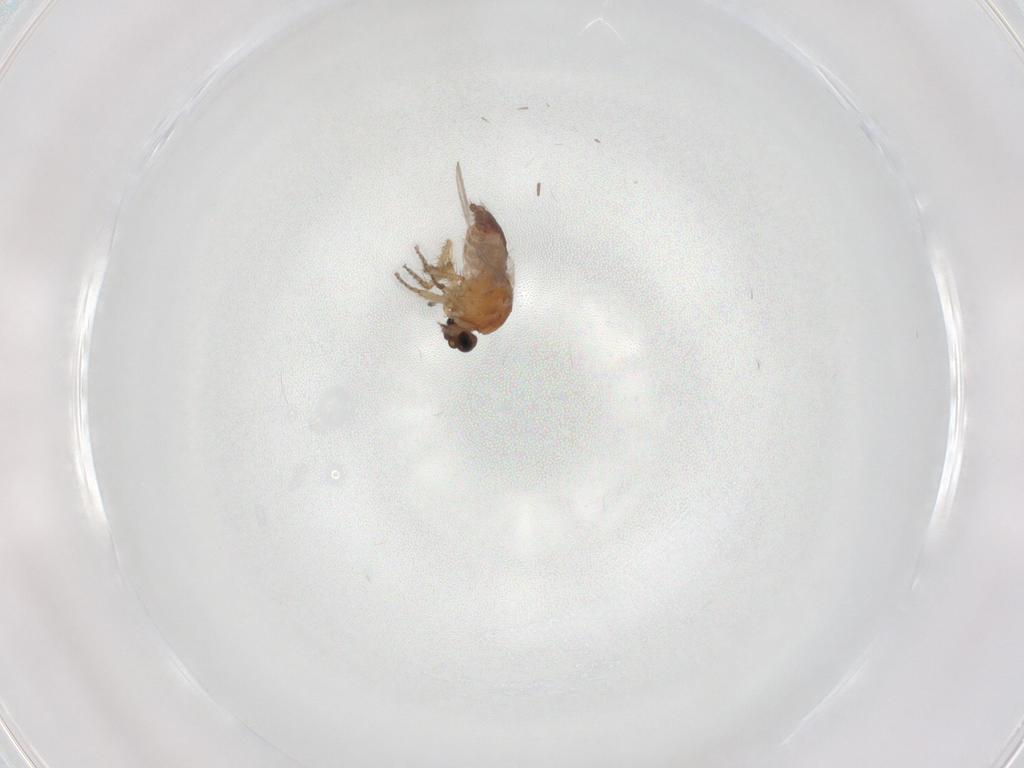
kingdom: Animalia
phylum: Arthropoda
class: Insecta
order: Diptera
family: Ceratopogonidae
